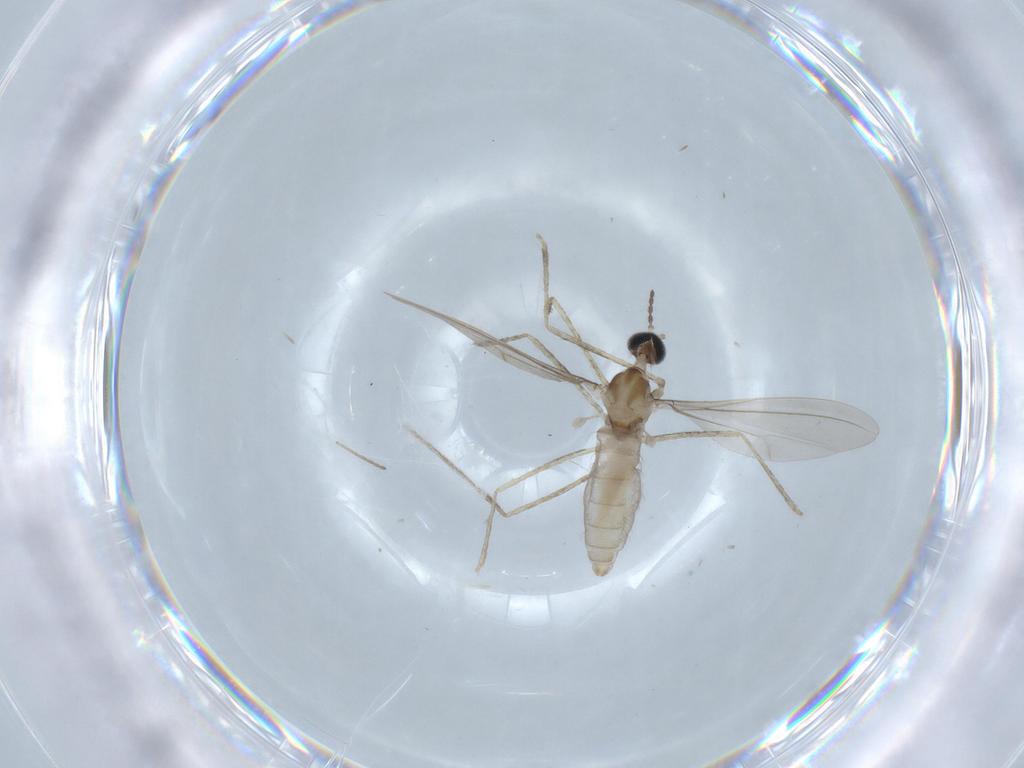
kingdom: Animalia
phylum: Arthropoda
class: Insecta
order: Diptera
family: Cecidomyiidae
